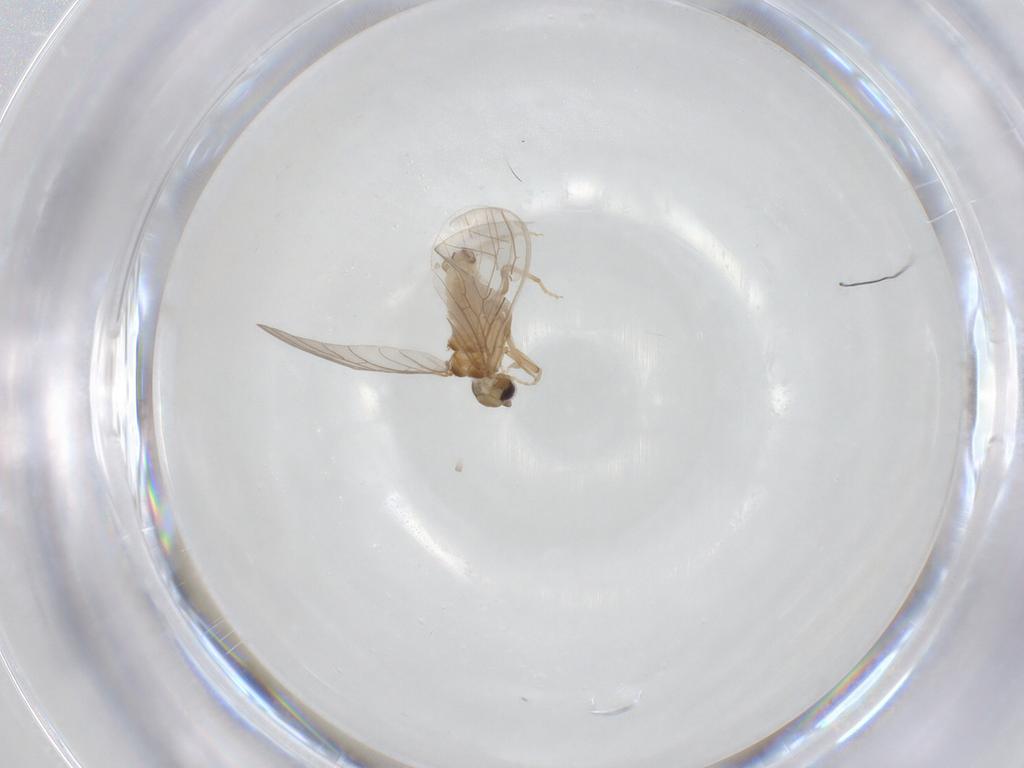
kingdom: Animalia
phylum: Arthropoda
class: Insecta
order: Neuroptera
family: Coniopterygidae
